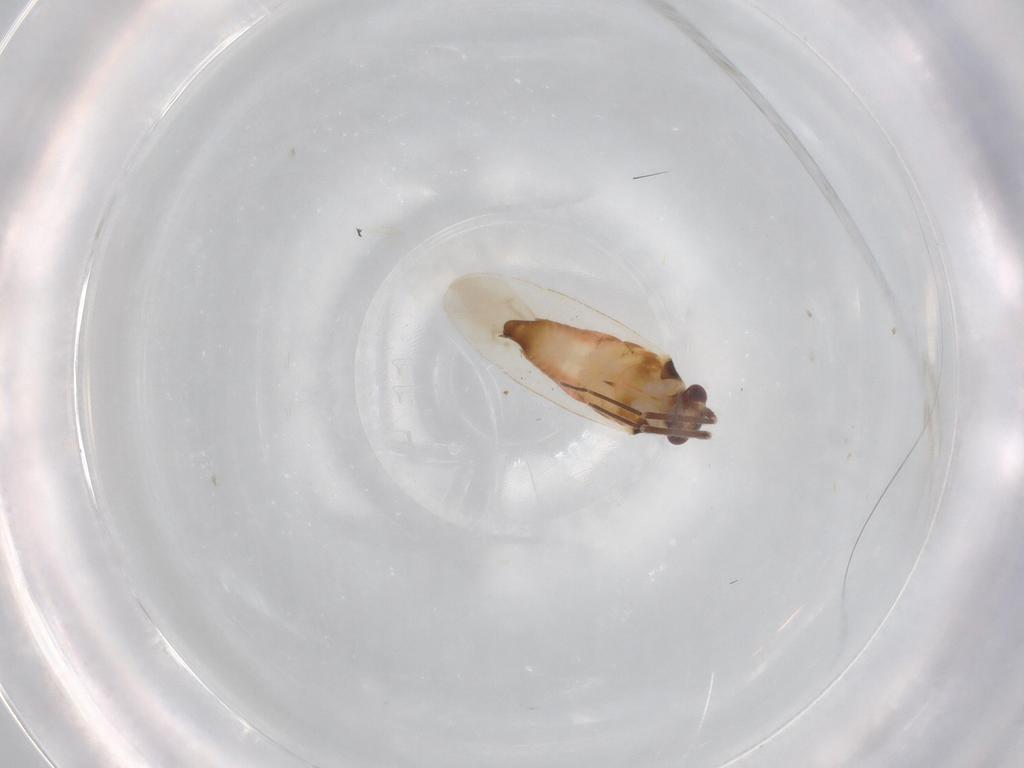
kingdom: Animalia
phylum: Arthropoda
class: Insecta
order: Hemiptera
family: Miridae
